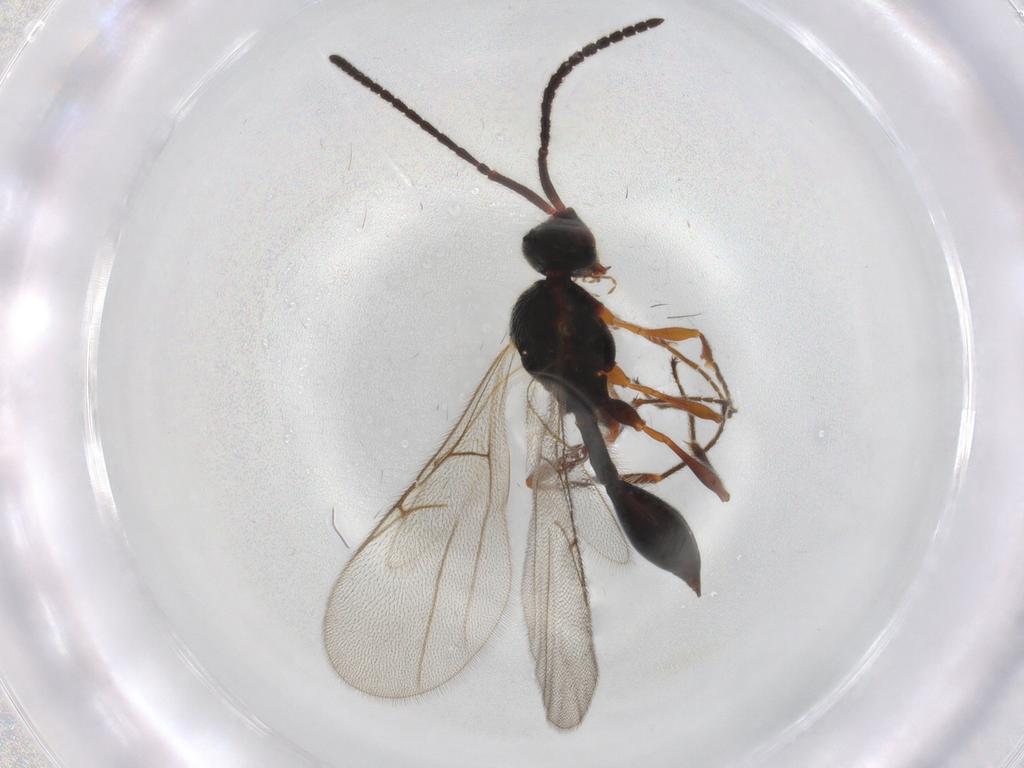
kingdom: Animalia
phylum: Arthropoda
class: Insecta
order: Hymenoptera
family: Diapriidae
